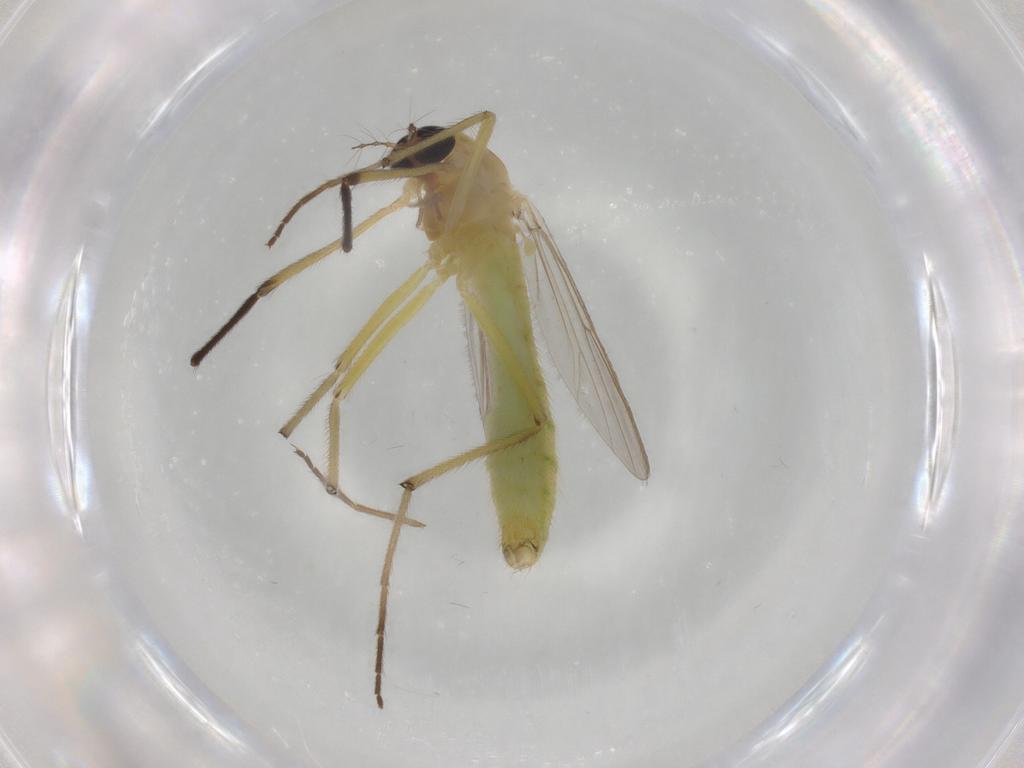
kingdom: Animalia
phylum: Arthropoda
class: Insecta
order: Diptera
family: Chironomidae
